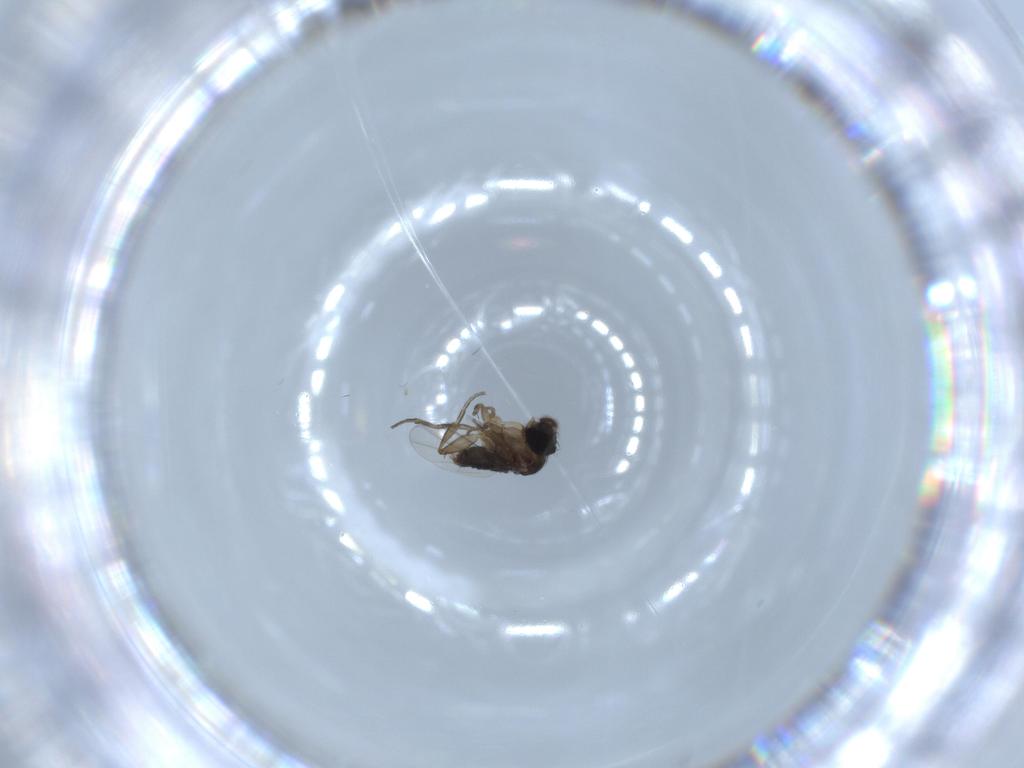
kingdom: Animalia
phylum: Arthropoda
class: Insecta
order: Diptera
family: Phoridae
